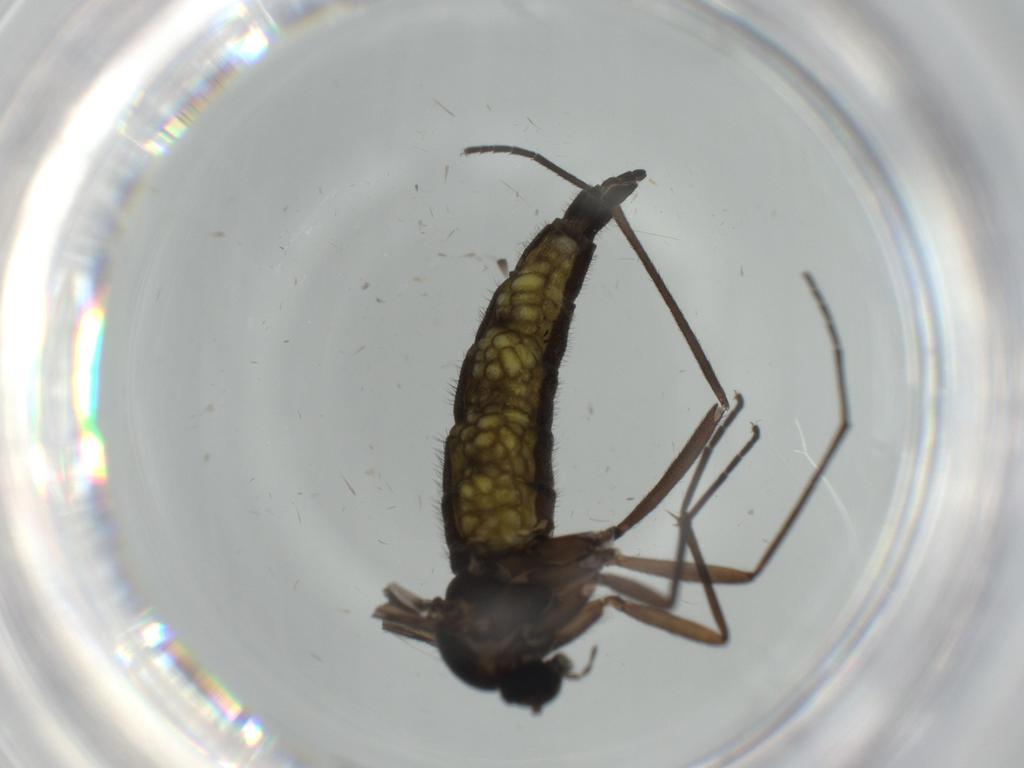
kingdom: Animalia
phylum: Arthropoda
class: Insecta
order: Diptera
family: Sciaridae
